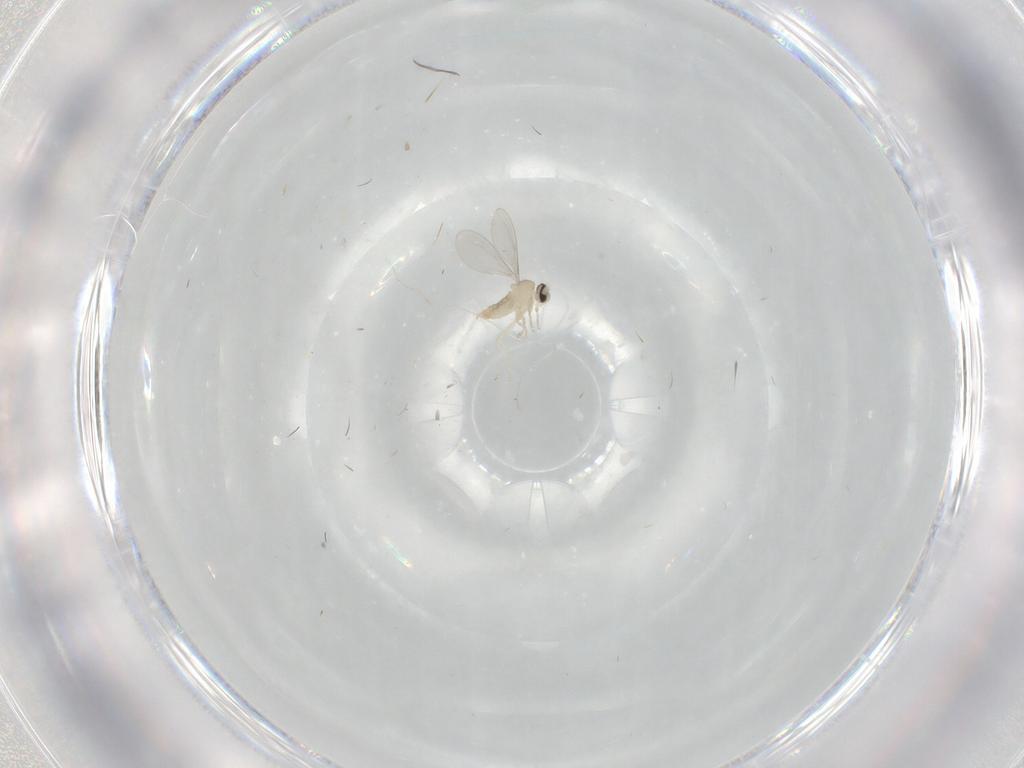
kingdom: Animalia
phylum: Arthropoda
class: Insecta
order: Diptera
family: Cecidomyiidae
